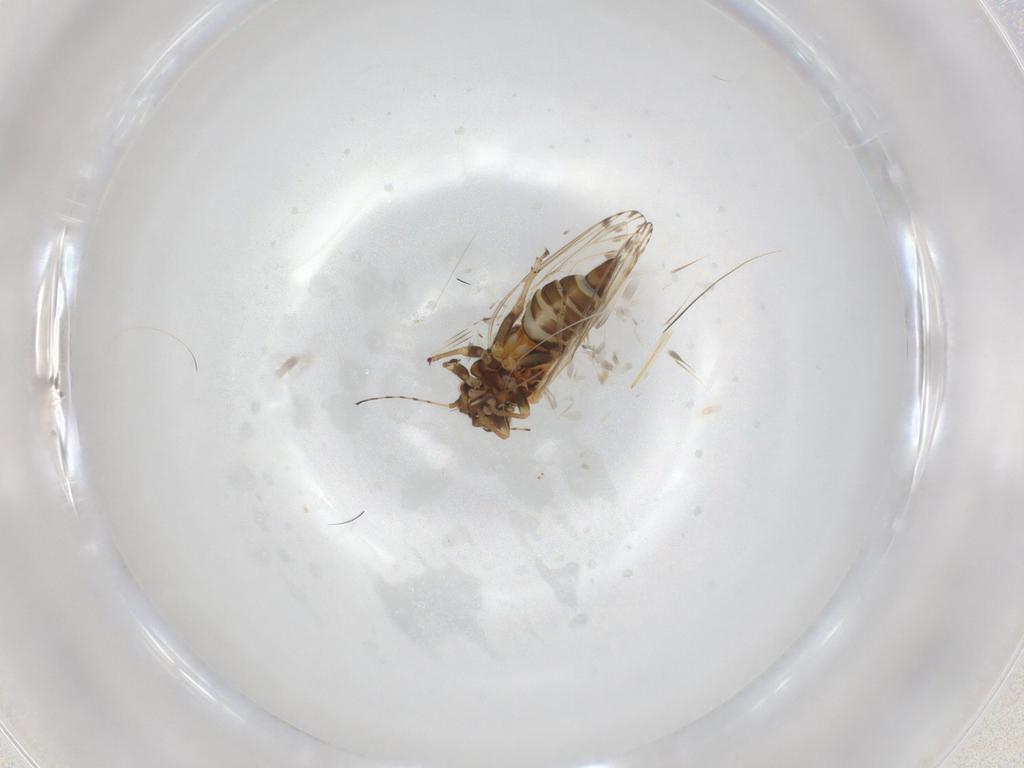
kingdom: Animalia
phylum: Arthropoda
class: Insecta
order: Hemiptera
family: Psyllidae
